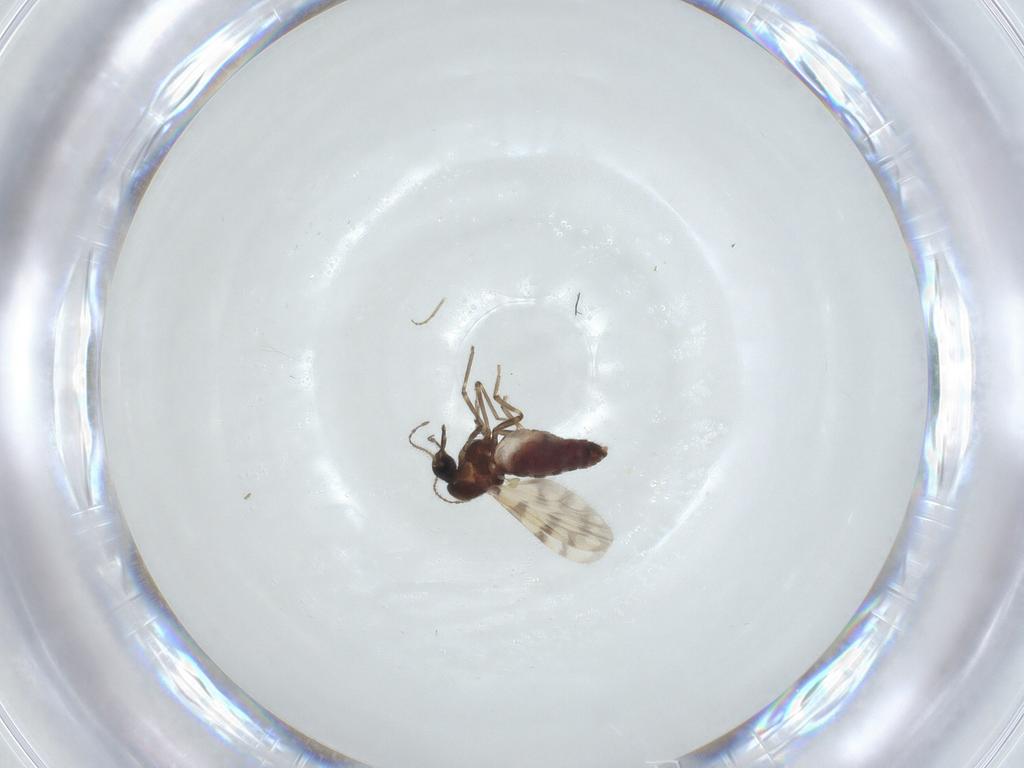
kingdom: Animalia
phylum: Arthropoda
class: Insecta
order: Diptera
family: Ceratopogonidae
